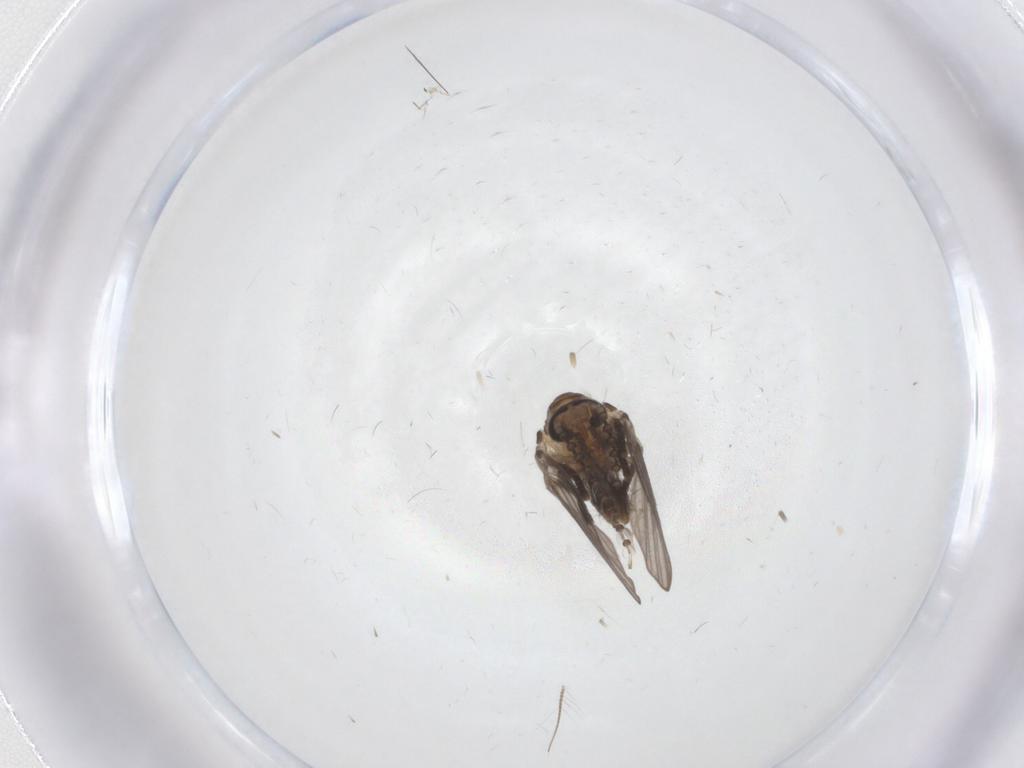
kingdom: Animalia
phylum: Arthropoda
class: Insecta
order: Diptera
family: Psychodidae
